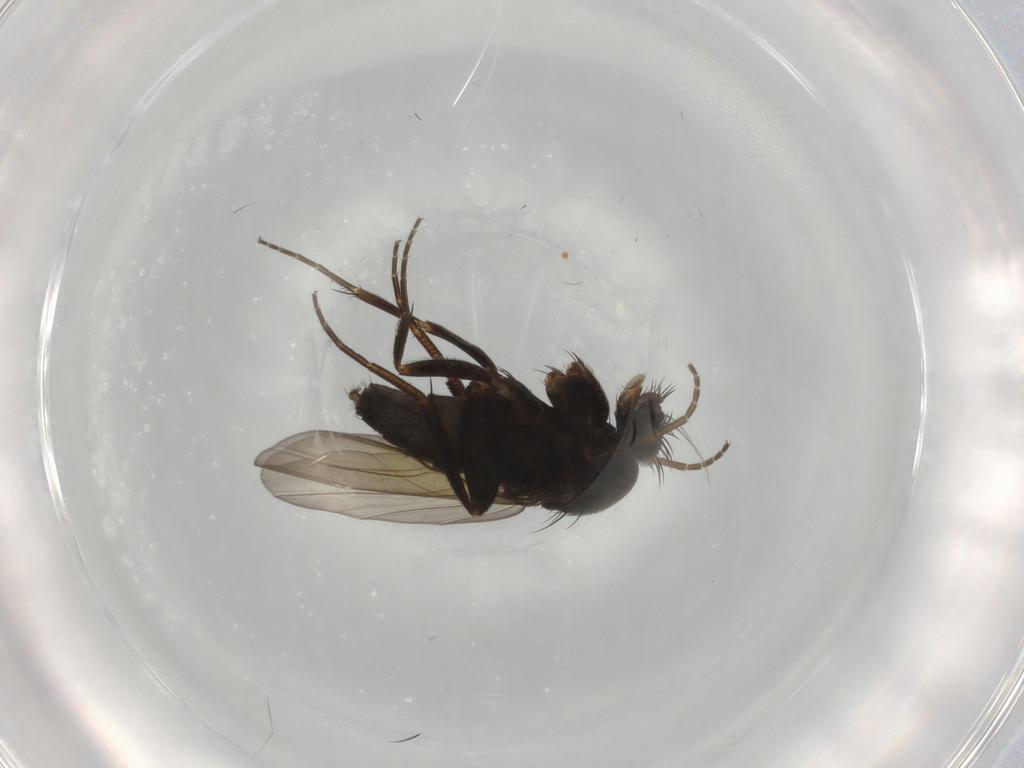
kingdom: Animalia
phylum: Arthropoda
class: Insecta
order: Diptera
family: Phoridae
